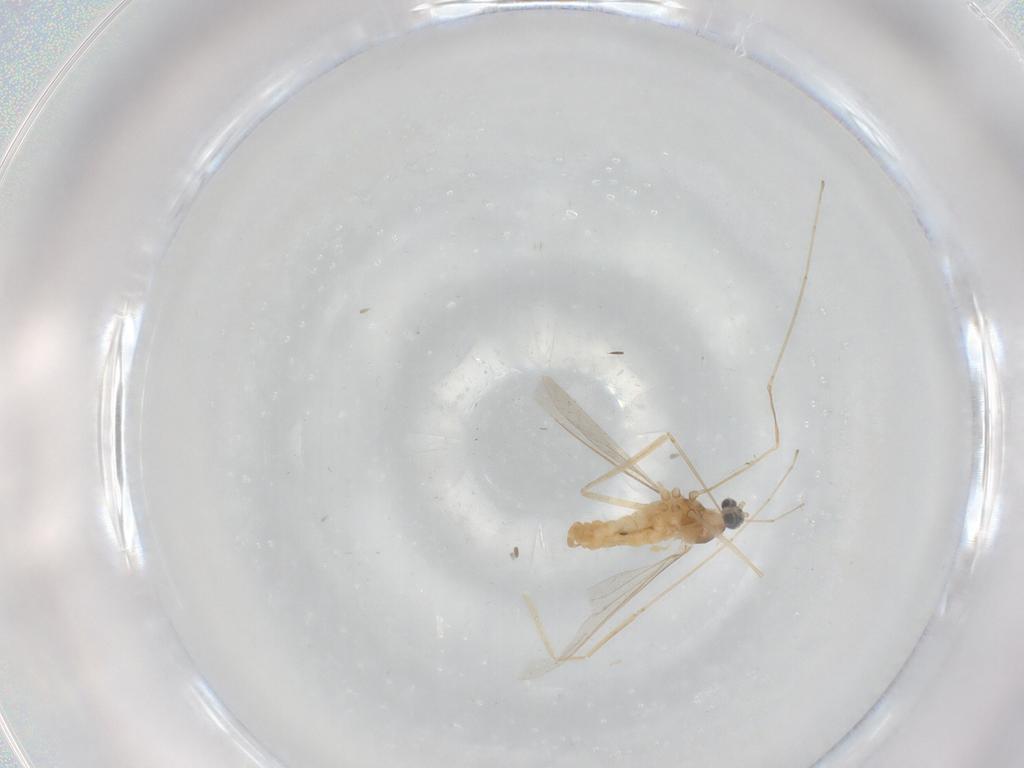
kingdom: Animalia
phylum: Arthropoda
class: Insecta
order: Diptera
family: Cecidomyiidae
